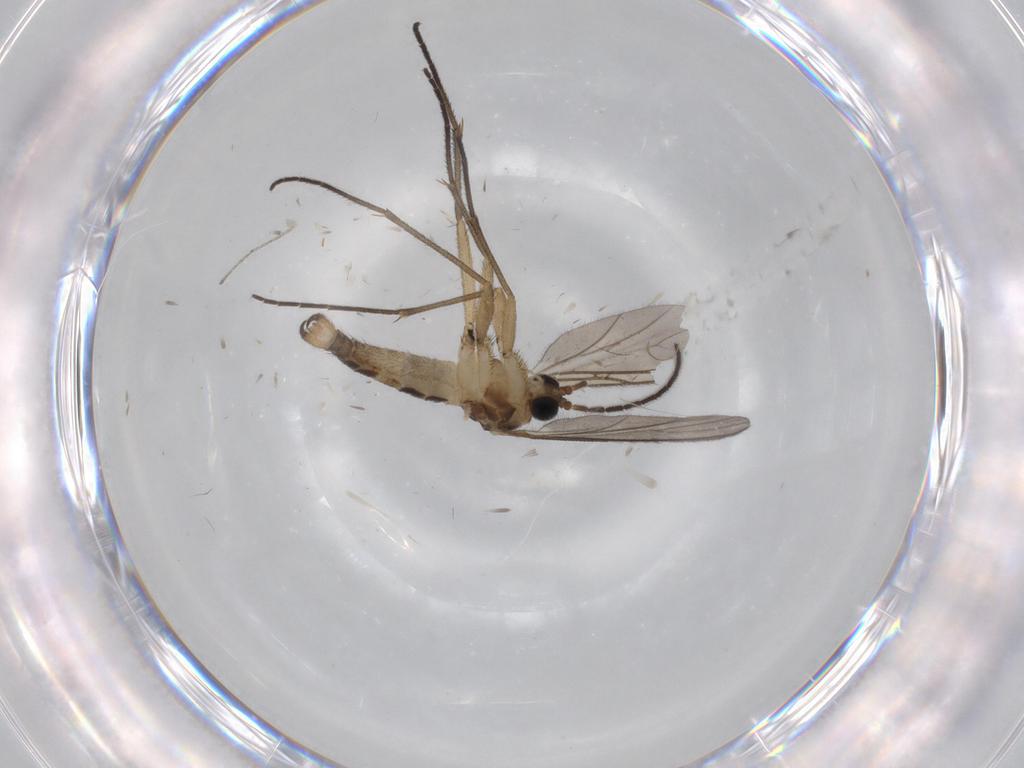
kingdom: Animalia
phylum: Arthropoda
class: Insecta
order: Diptera
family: Cecidomyiidae
